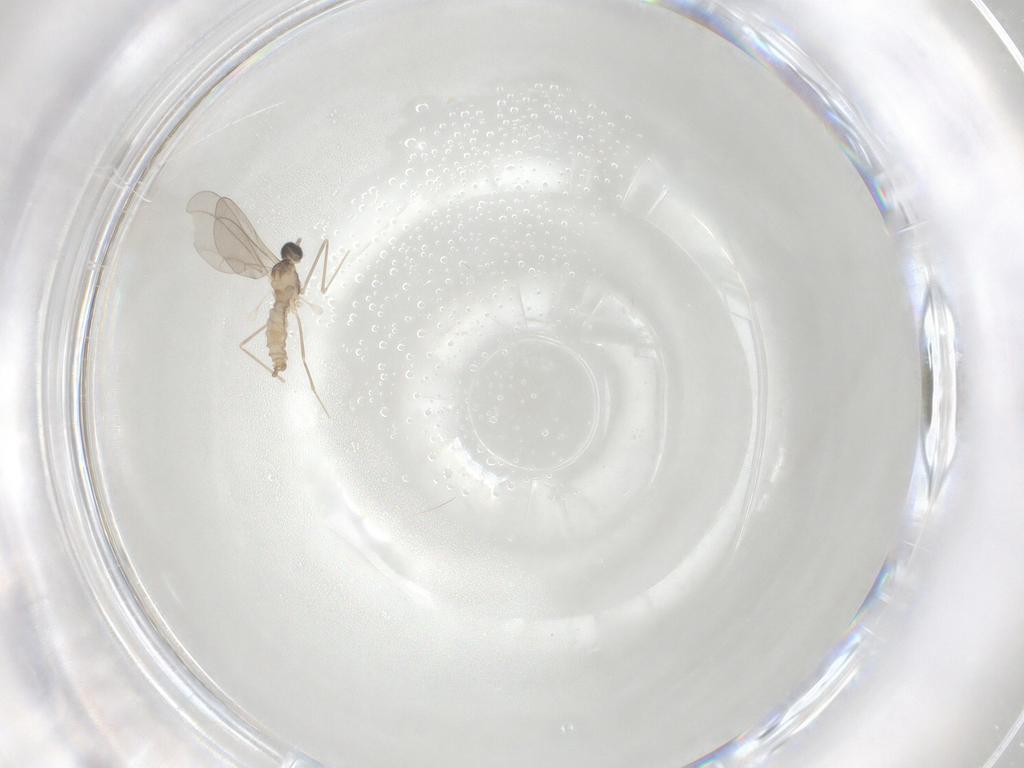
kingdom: Animalia
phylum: Arthropoda
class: Insecta
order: Diptera
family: Cecidomyiidae
